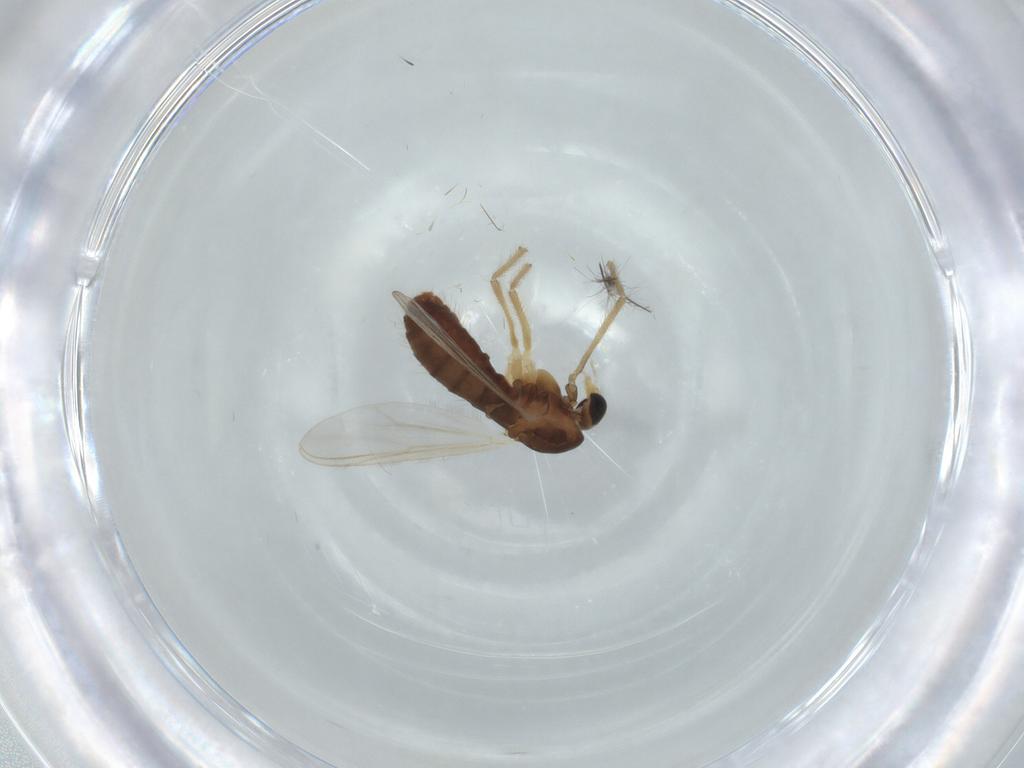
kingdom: Animalia
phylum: Arthropoda
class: Insecta
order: Diptera
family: Chironomidae
